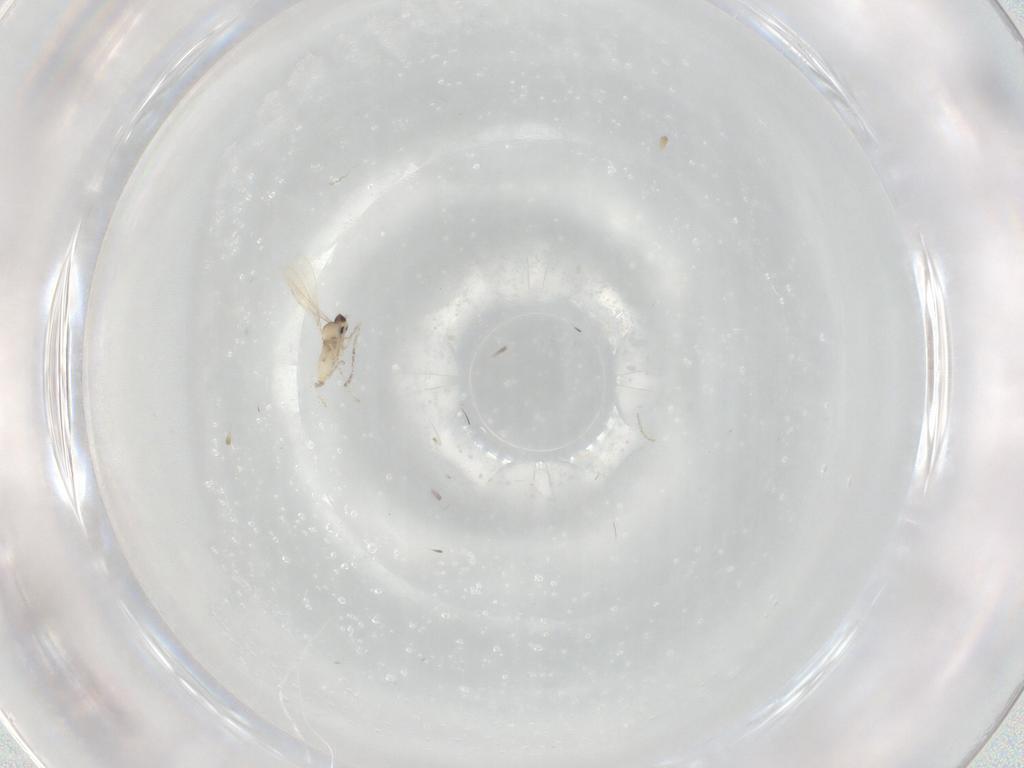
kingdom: Animalia
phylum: Arthropoda
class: Insecta
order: Diptera
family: Cecidomyiidae
